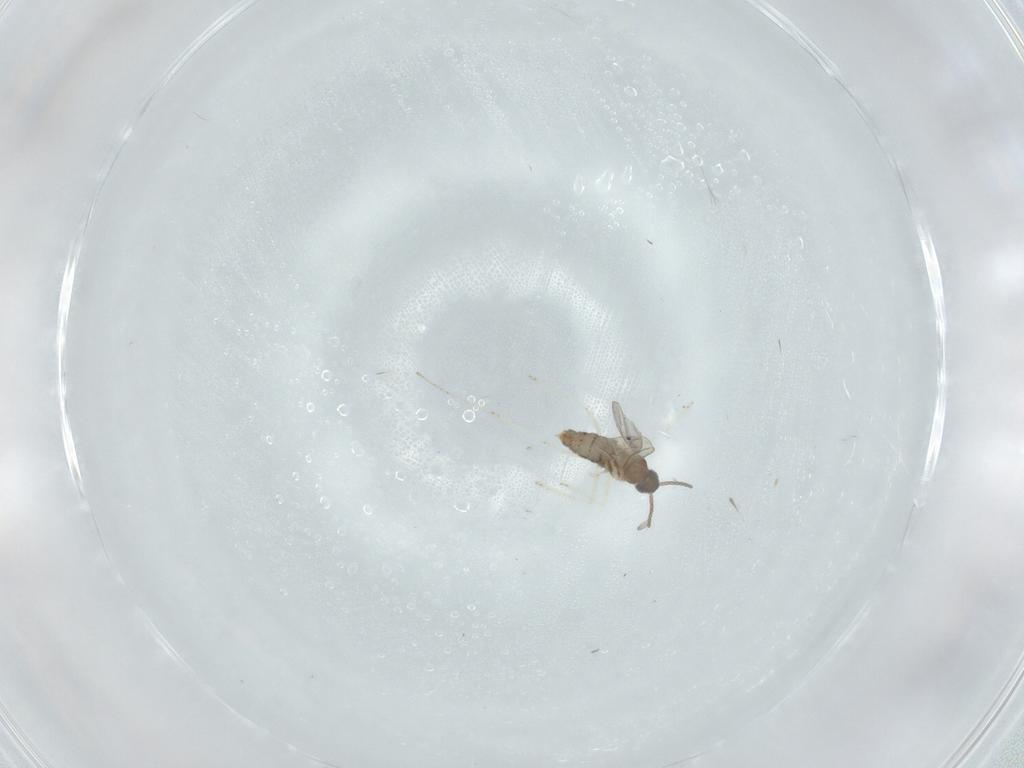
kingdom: Animalia
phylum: Arthropoda
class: Insecta
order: Diptera
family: Cecidomyiidae
